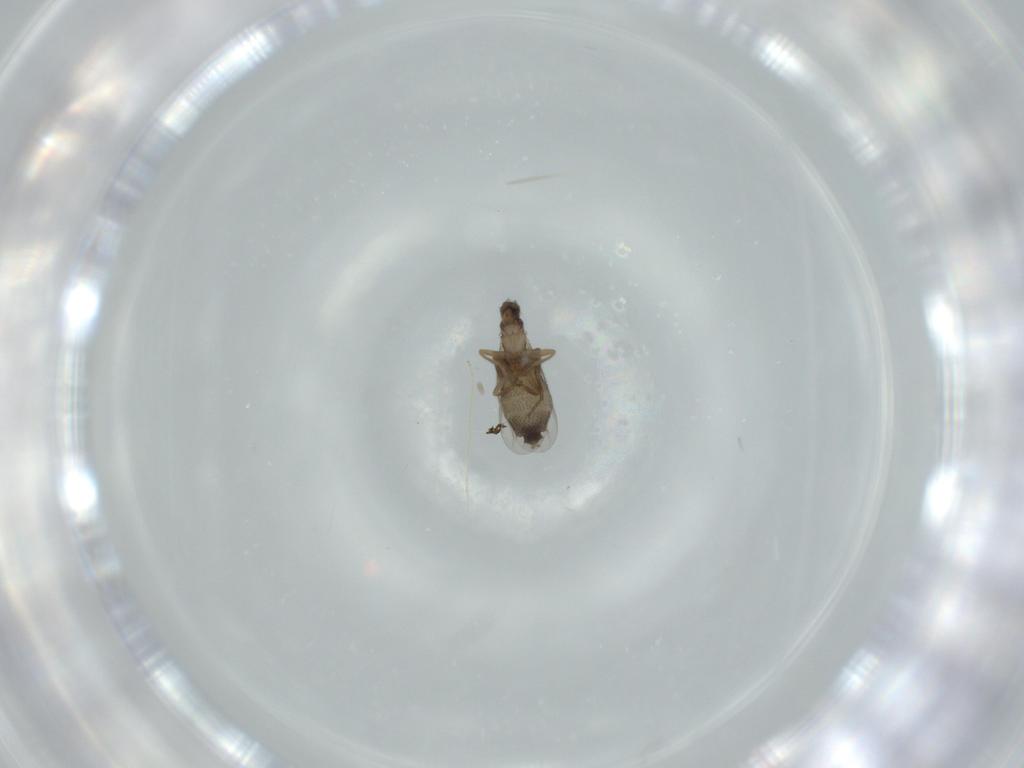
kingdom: Animalia
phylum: Arthropoda
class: Insecta
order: Diptera
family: Phoridae
